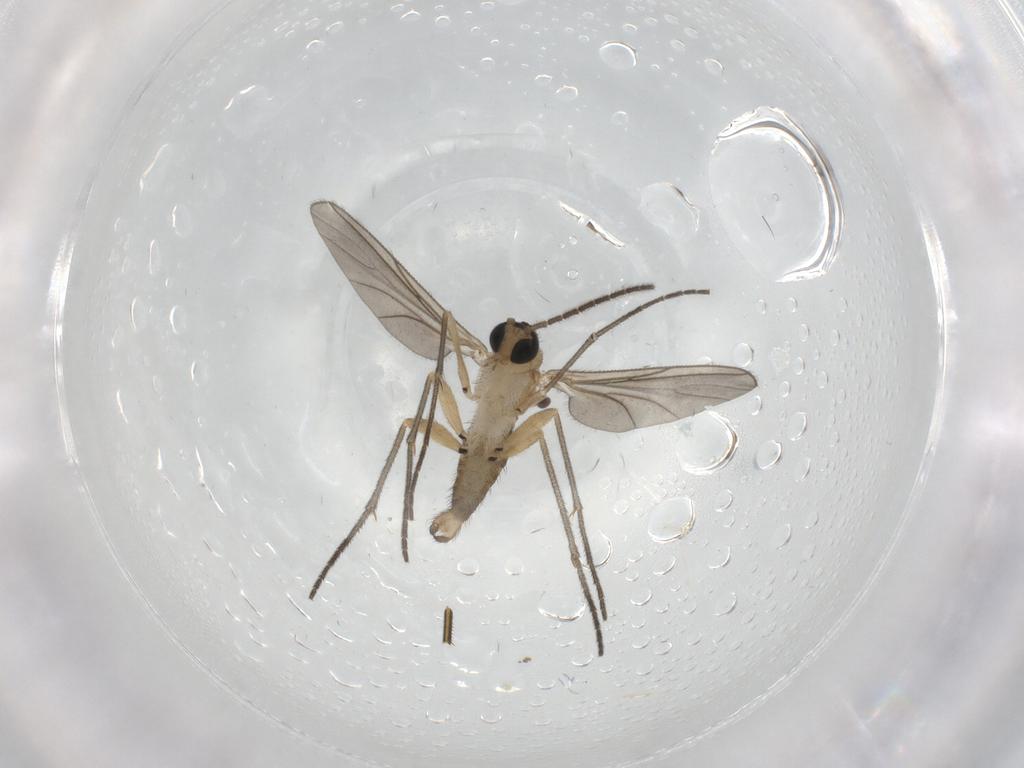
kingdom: Animalia
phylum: Arthropoda
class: Insecta
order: Diptera
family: Sciaridae
